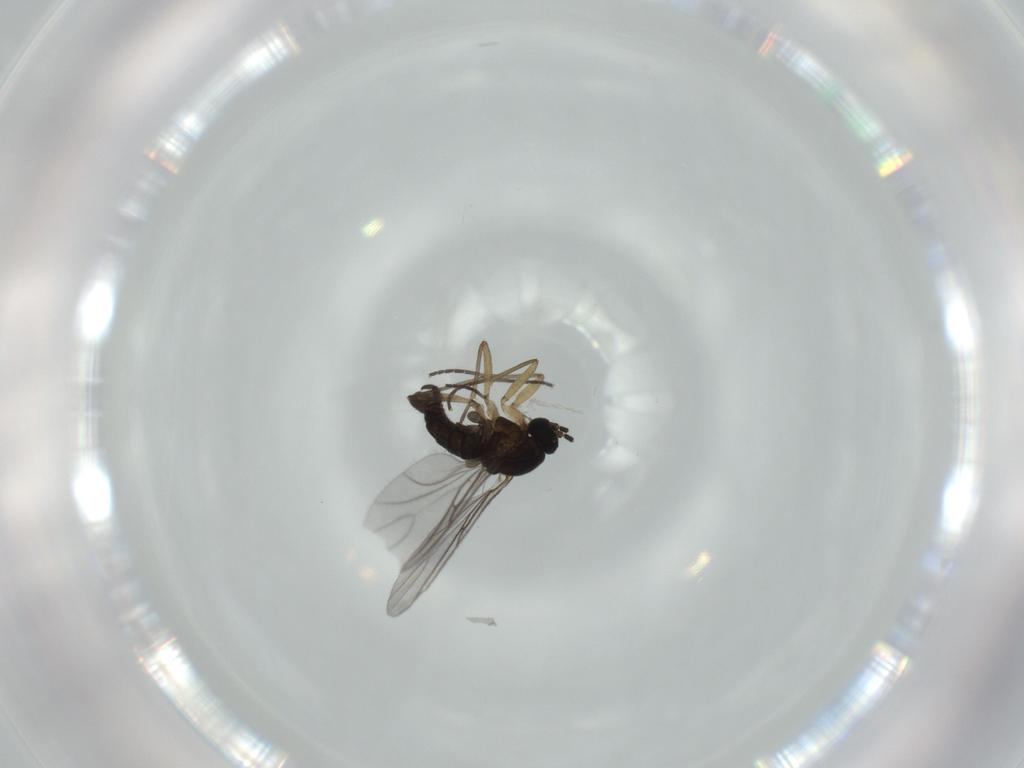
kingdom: Animalia
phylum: Arthropoda
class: Insecta
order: Diptera
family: Sciaridae
